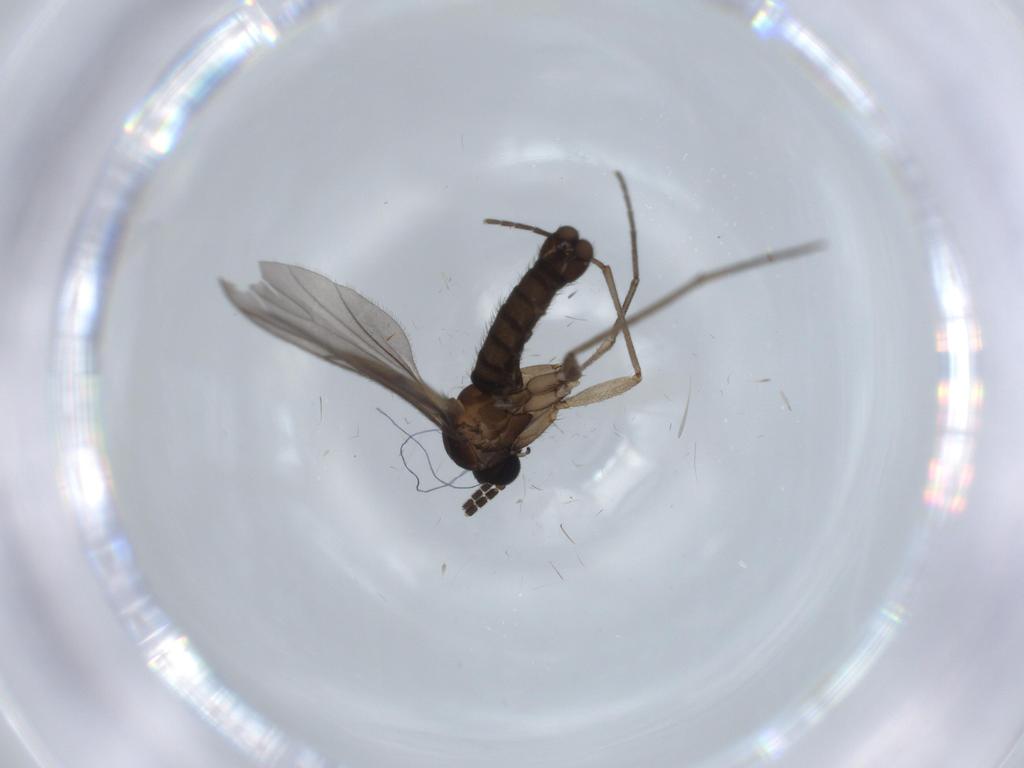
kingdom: Animalia
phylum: Arthropoda
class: Insecta
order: Diptera
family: Sciaridae
